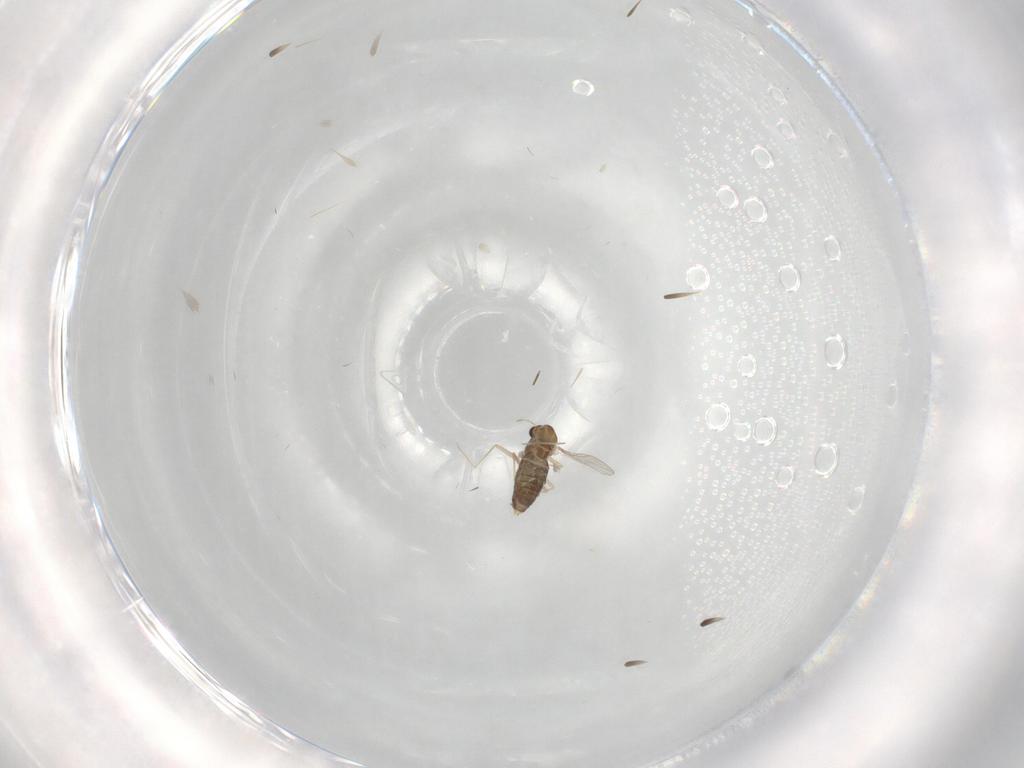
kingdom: Animalia
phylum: Arthropoda
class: Insecta
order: Diptera
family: Chironomidae
